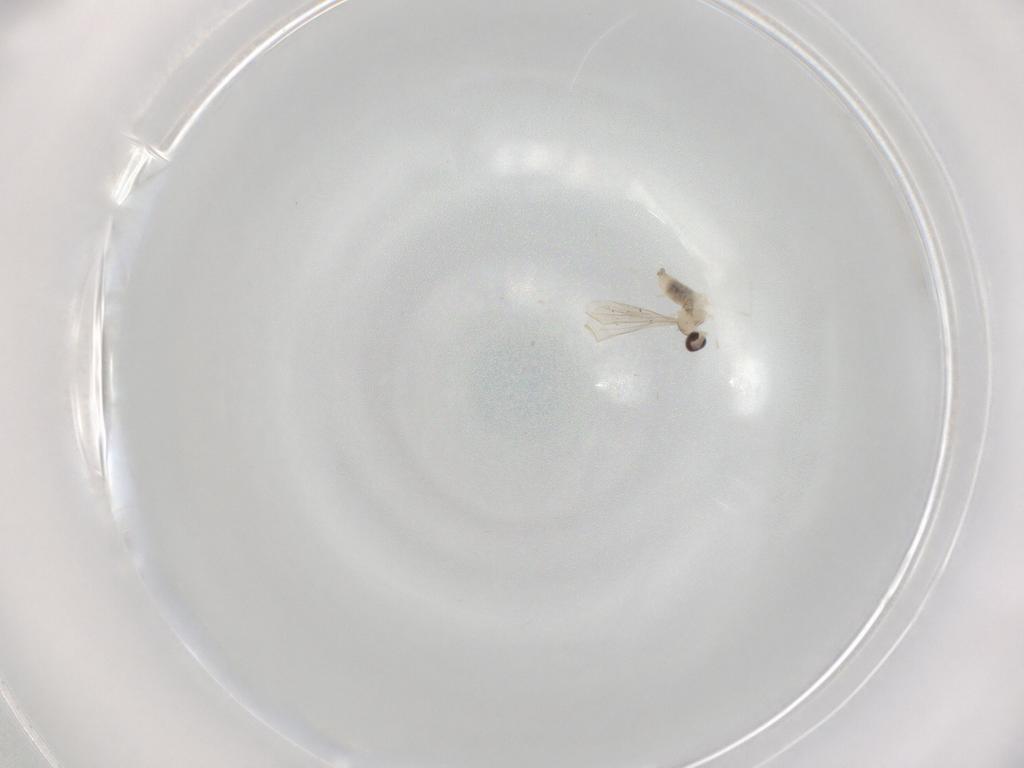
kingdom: Animalia
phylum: Arthropoda
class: Insecta
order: Diptera
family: Cecidomyiidae
